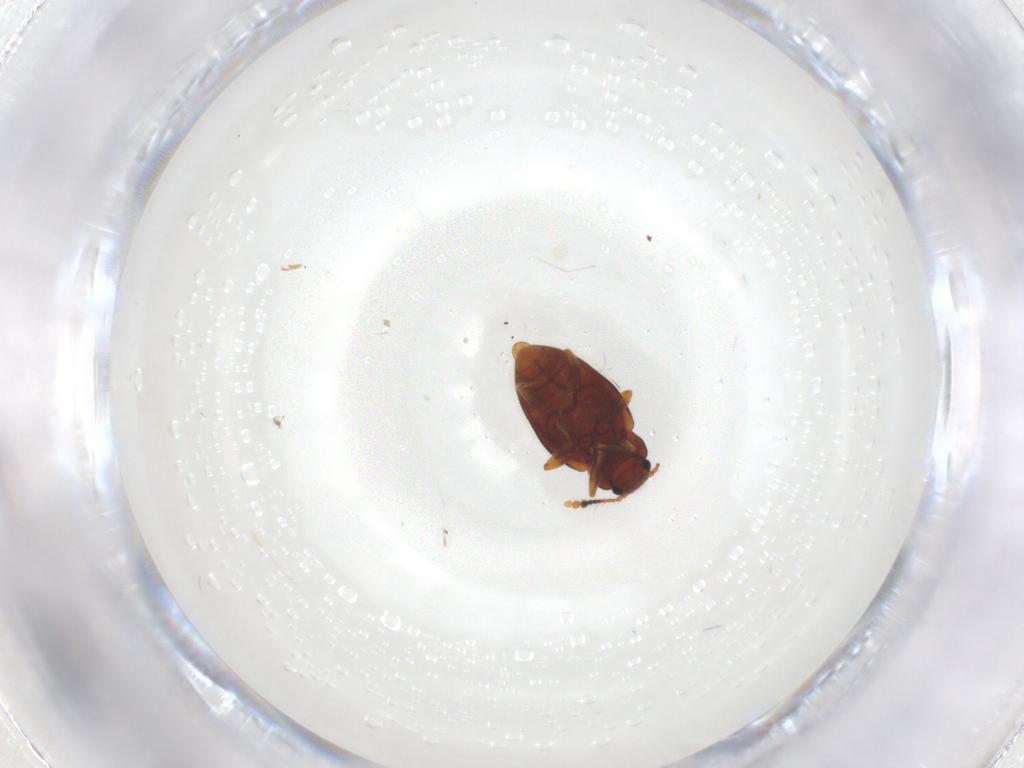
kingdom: Animalia
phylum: Arthropoda
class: Insecta
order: Coleoptera
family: Erotylidae
